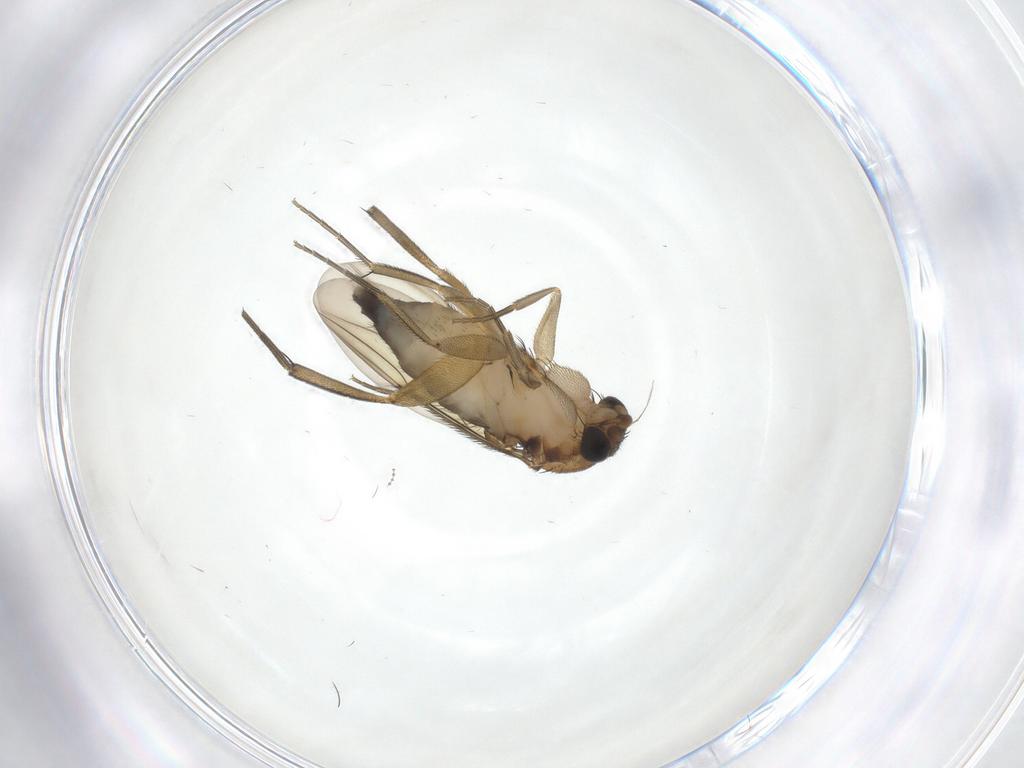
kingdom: Animalia
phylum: Arthropoda
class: Insecta
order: Diptera
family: Phoridae
